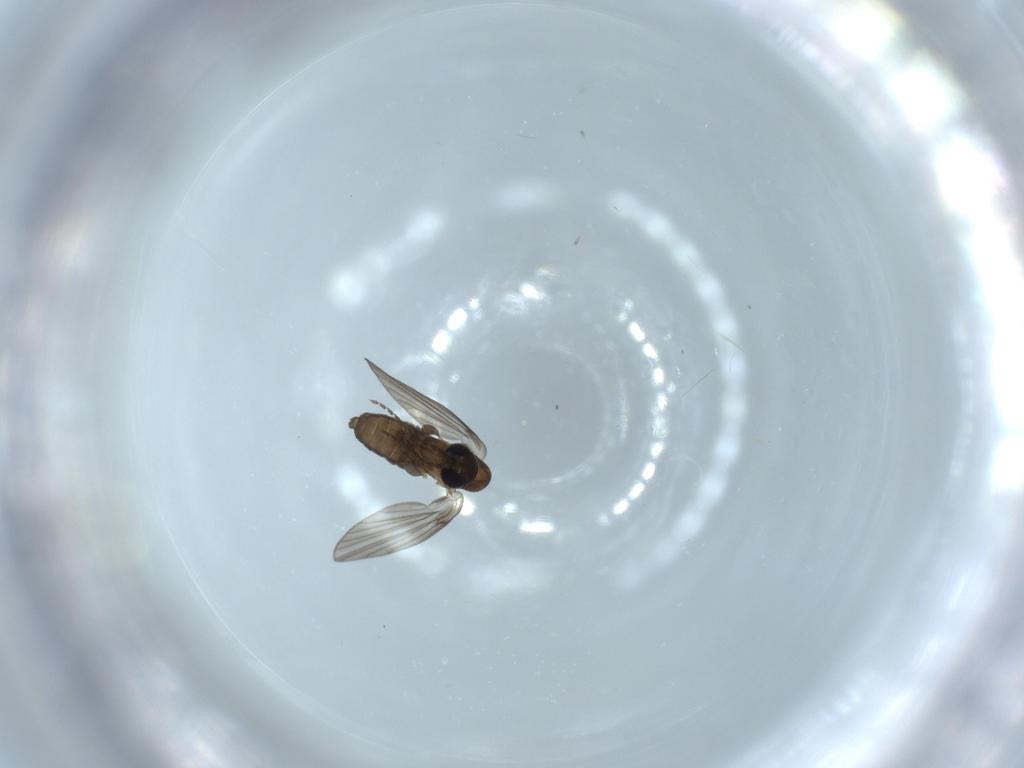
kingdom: Animalia
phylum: Arthropoda
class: Insecta
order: Diptera
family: Psychodidae
